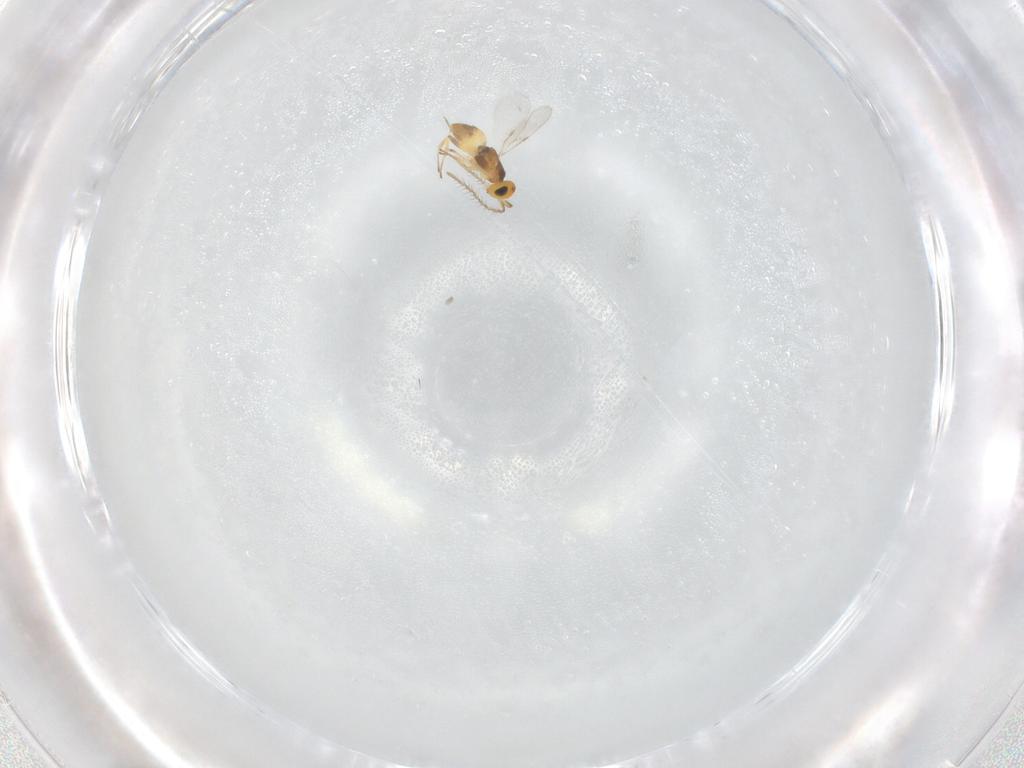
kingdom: Animalia
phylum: Arthropoda
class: Insecta
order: Hymenoptera
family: Encyrtidae
